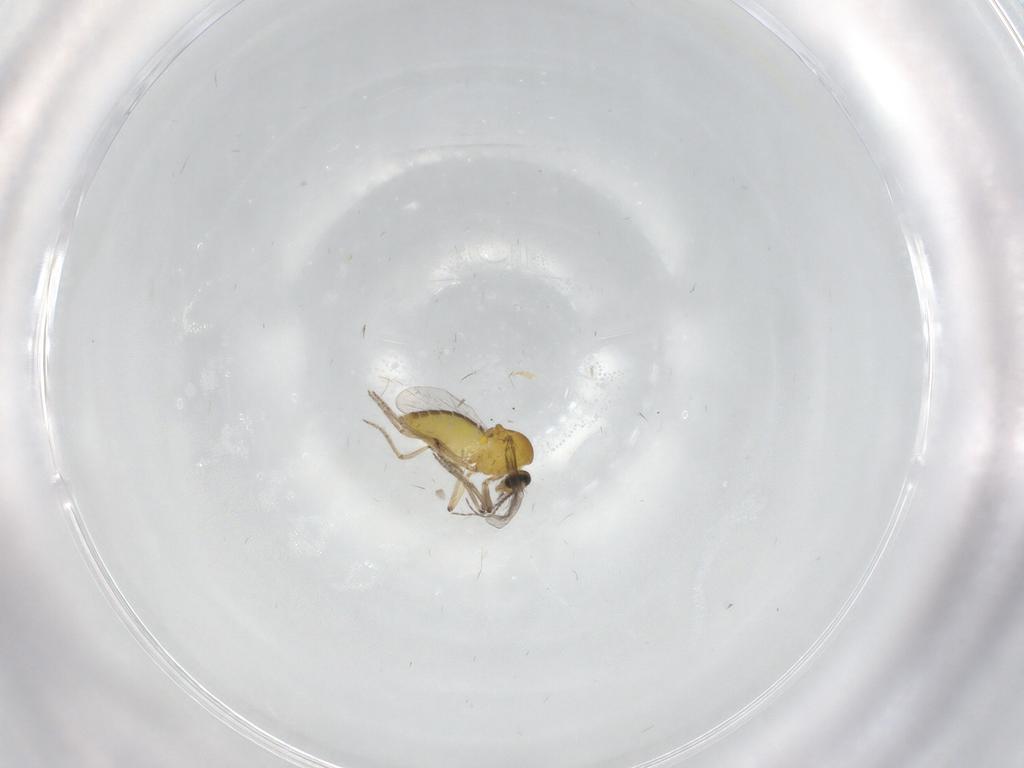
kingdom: Animalia
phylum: Arthropoda
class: Insecta
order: Diptera
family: Ceratopogonidae
